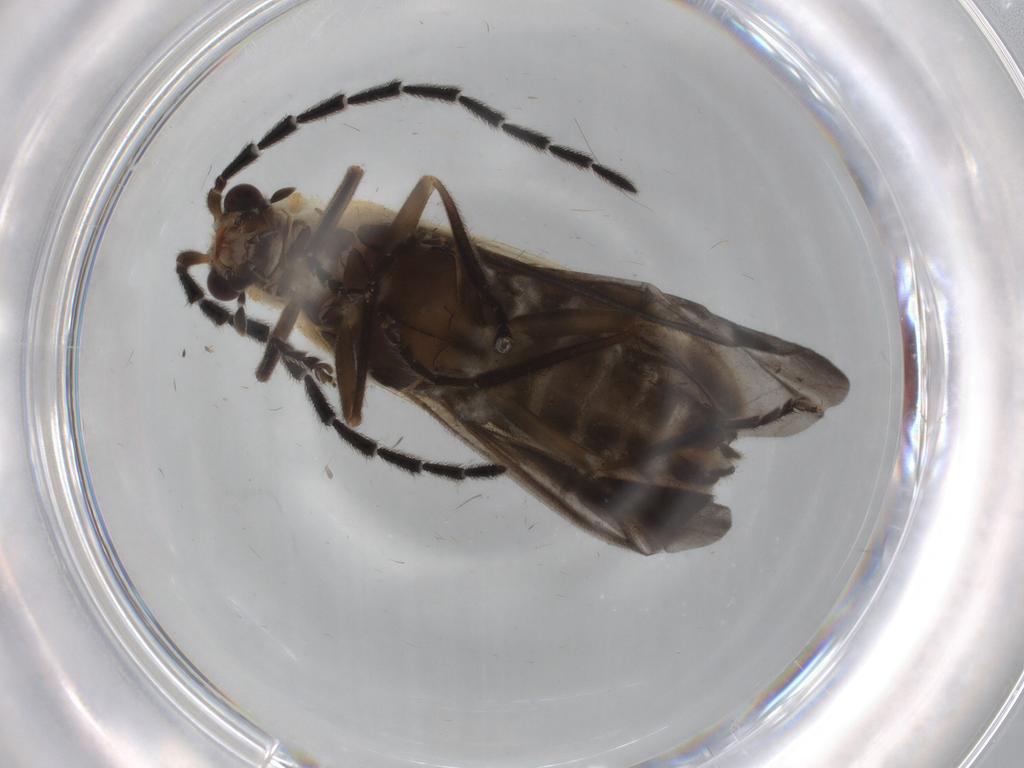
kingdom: Animalia
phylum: Arthropoda
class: Insecta
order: Coleoptera
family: Cantharidae
